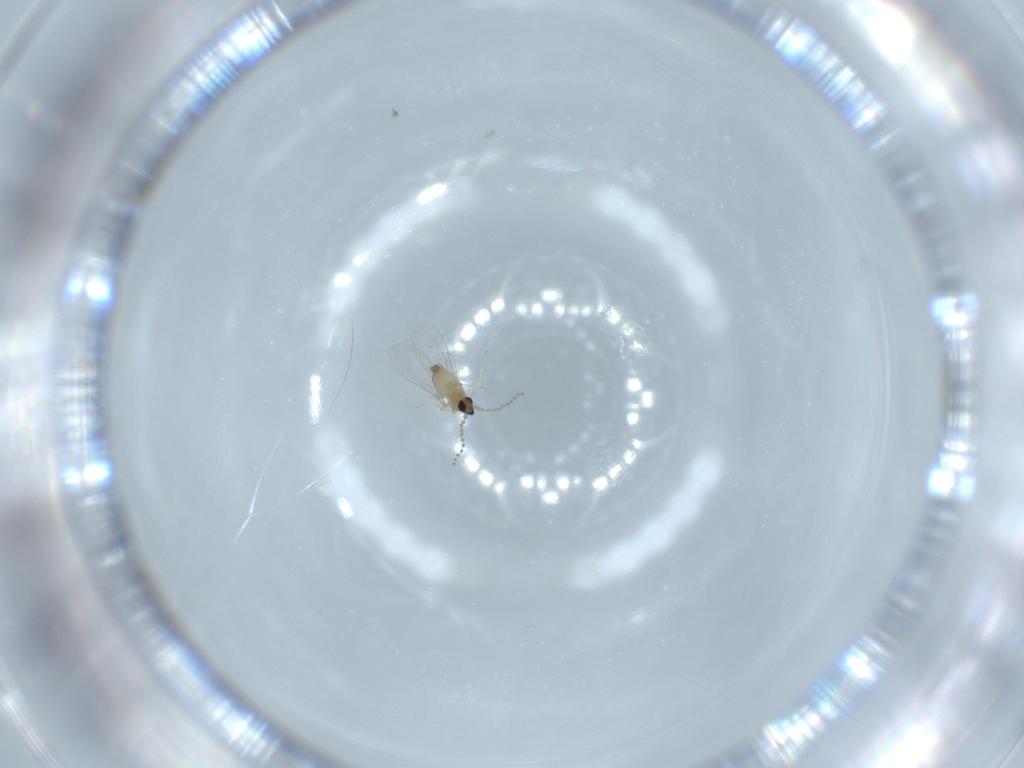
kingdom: Animalia
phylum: Arthropoda
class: Insecta
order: Diptera
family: Cecidomyiidae
